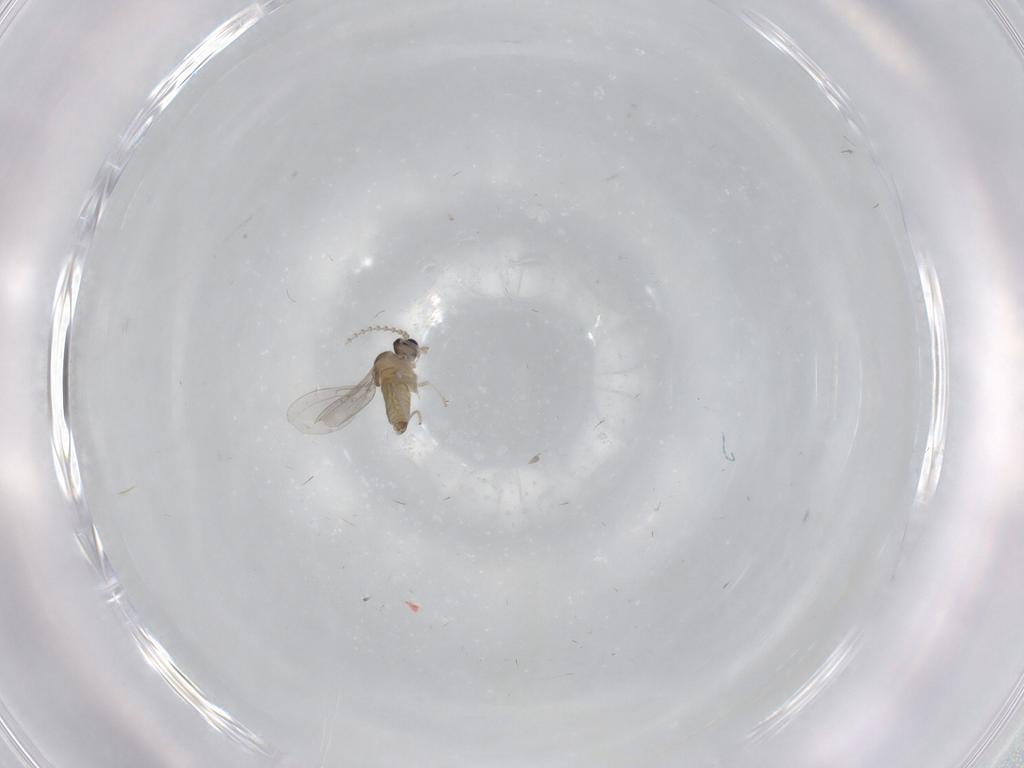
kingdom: Animalia
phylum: Arthropoda
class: Insecta
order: Diptera
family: Cecidomyiidae
